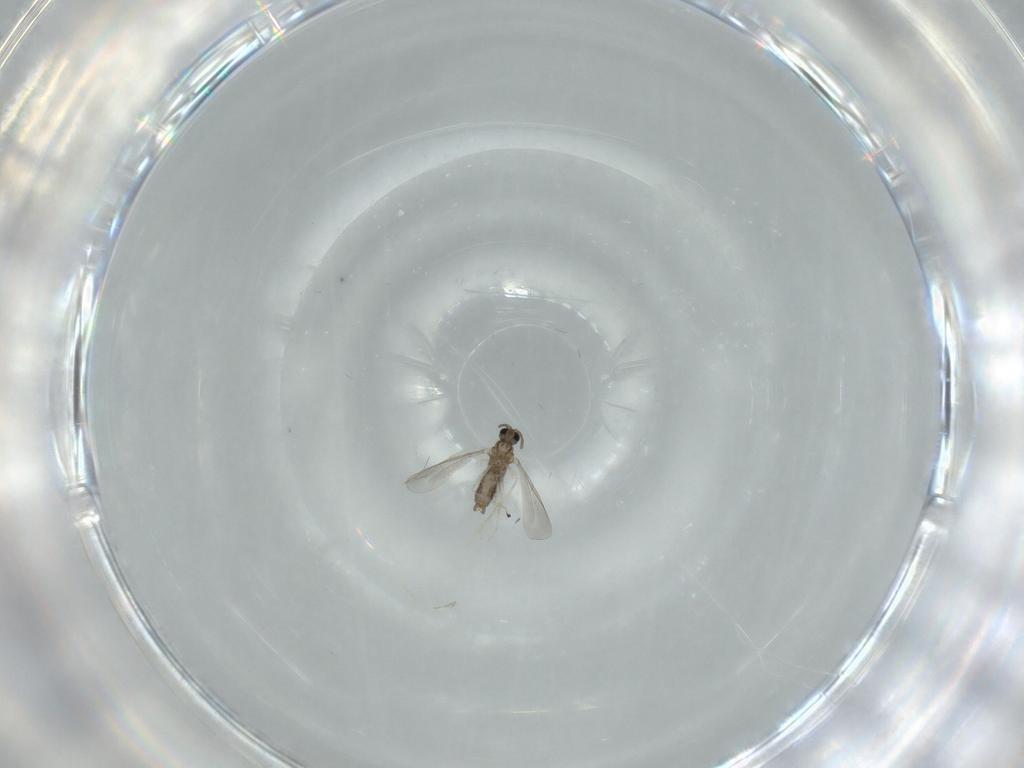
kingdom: Animalia
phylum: Arthropoda
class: Insecta
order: Diptera
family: Cecidomyiidae
